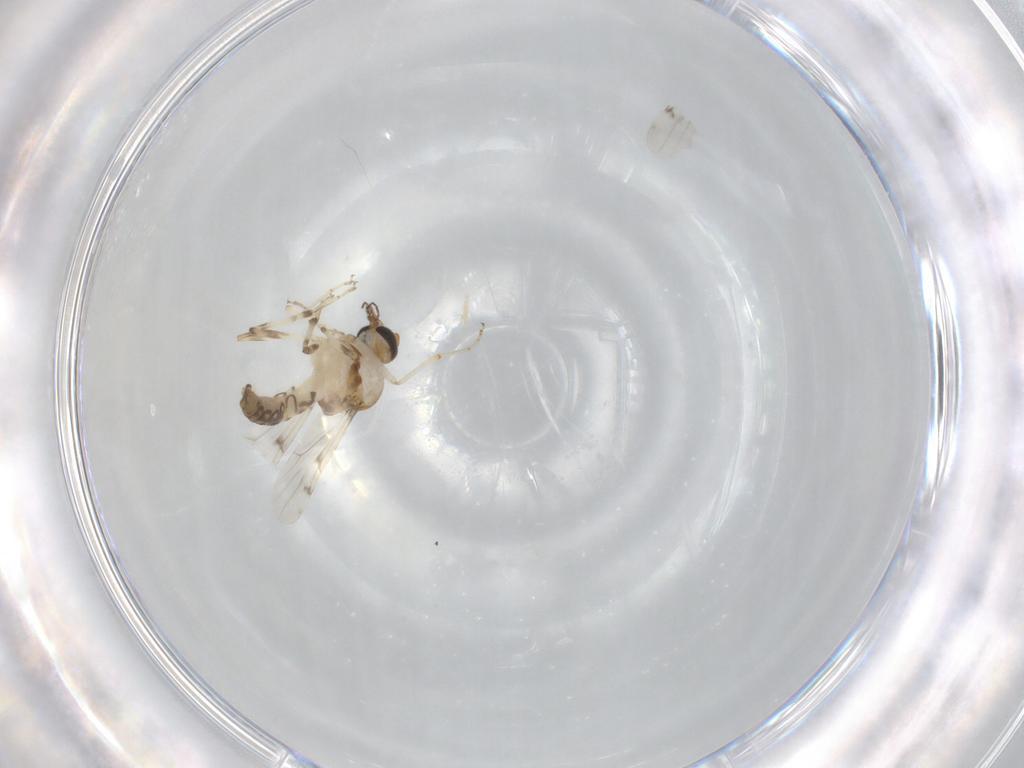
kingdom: Animalia
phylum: Arthropoda
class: Insecta
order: Diptera
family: Ceratopogonidae
